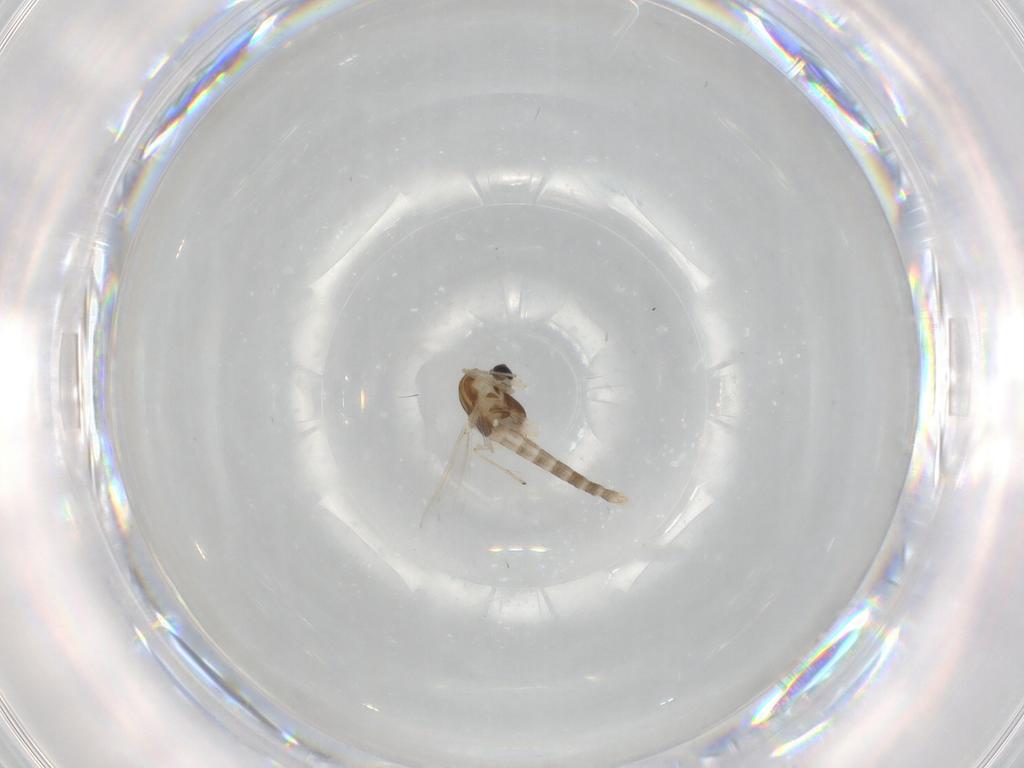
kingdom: Animalia
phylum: Arthropoda
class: Insecta
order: Diptera
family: Chironomidae
